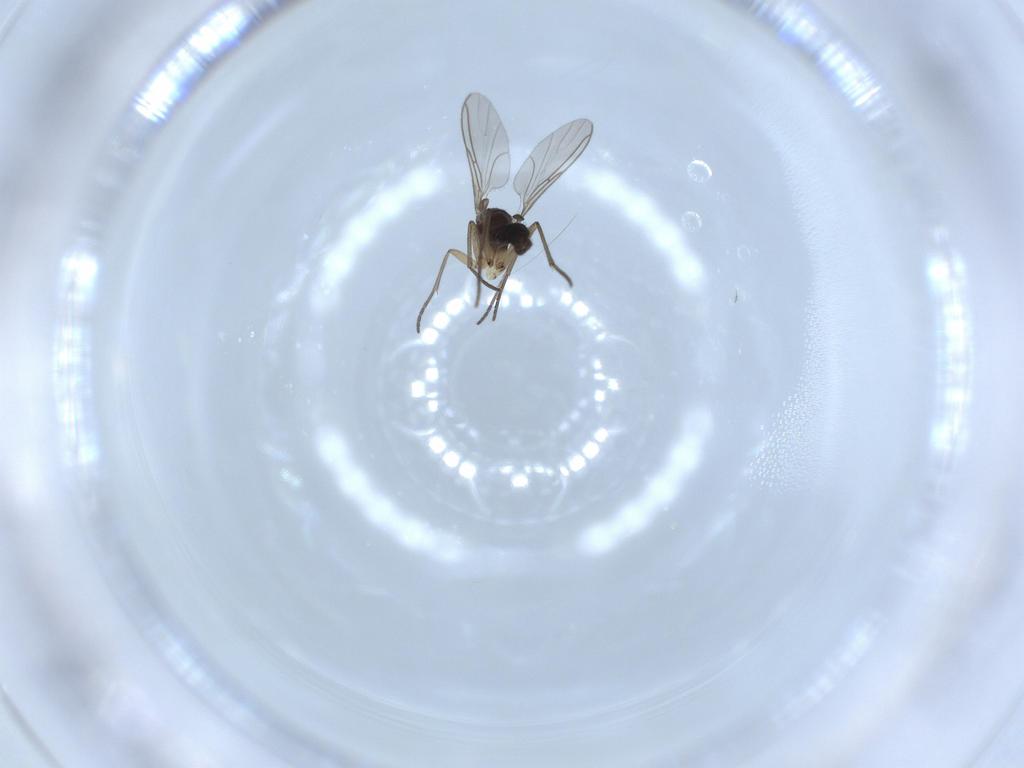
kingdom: Animalia
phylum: Arthropoda
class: Insecta
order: Diptera
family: Sciaridae
